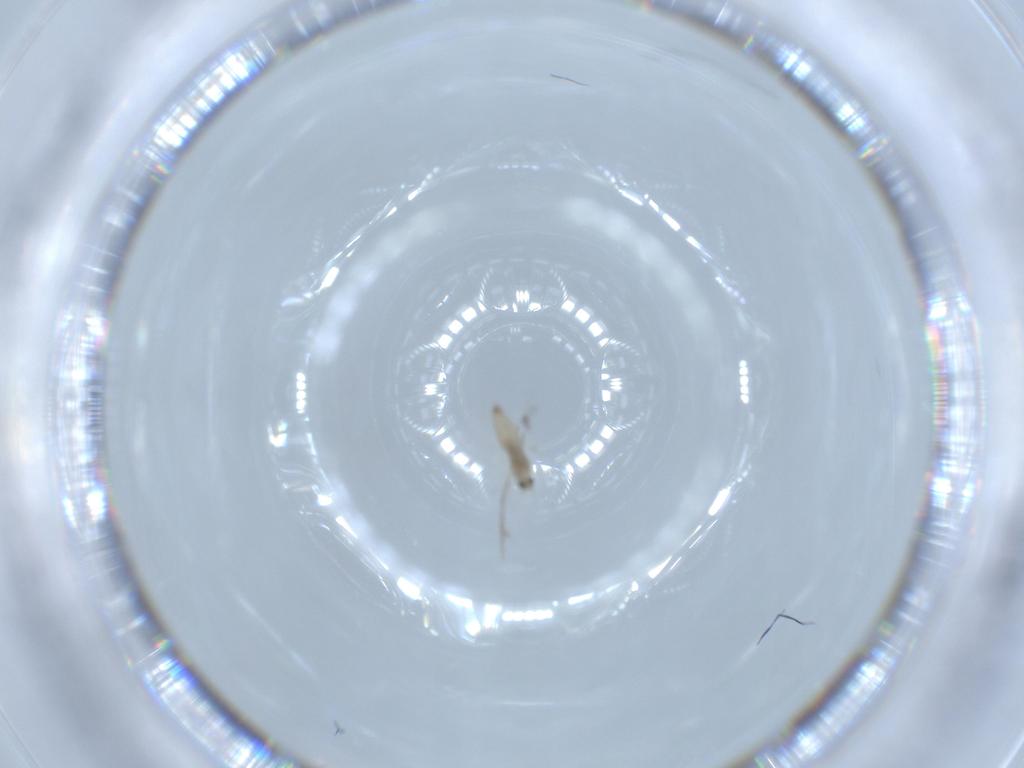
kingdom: Animalia
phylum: Arthropoda
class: Insecta
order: Diptera
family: Cecidomyiidae
